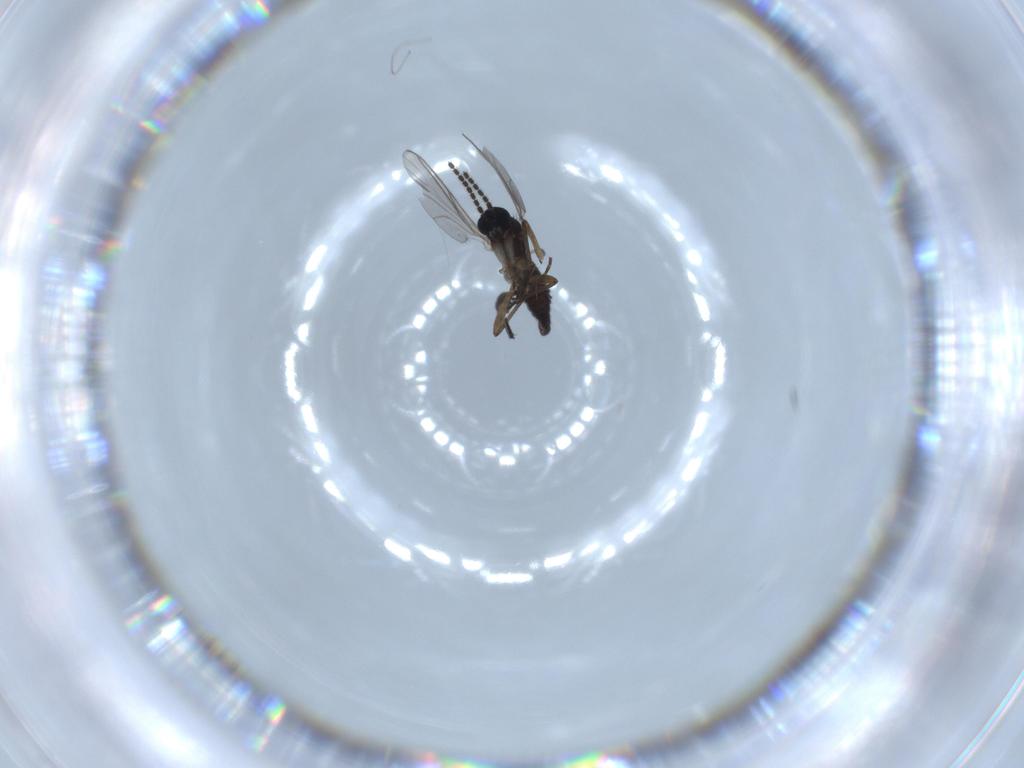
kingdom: Animalia
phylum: Arthropoda
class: Insecta
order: Diptera
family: Sciaridae
